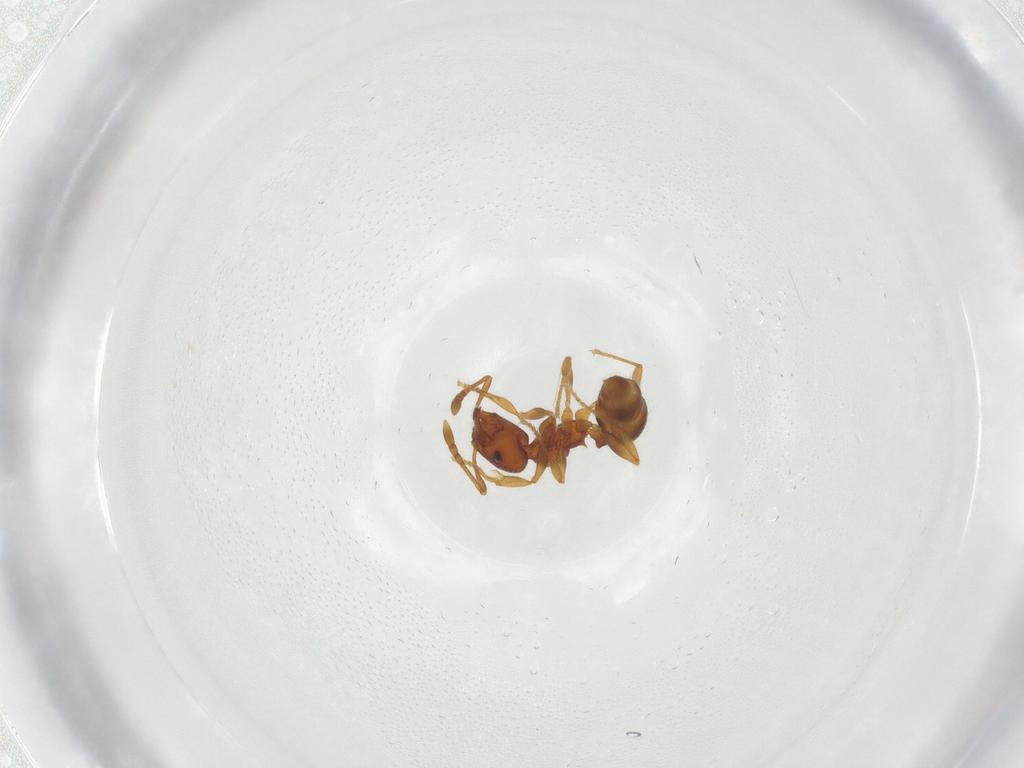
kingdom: Animalia
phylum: Arthropoda
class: Insecta
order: Hymenoptera
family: Formicidae
